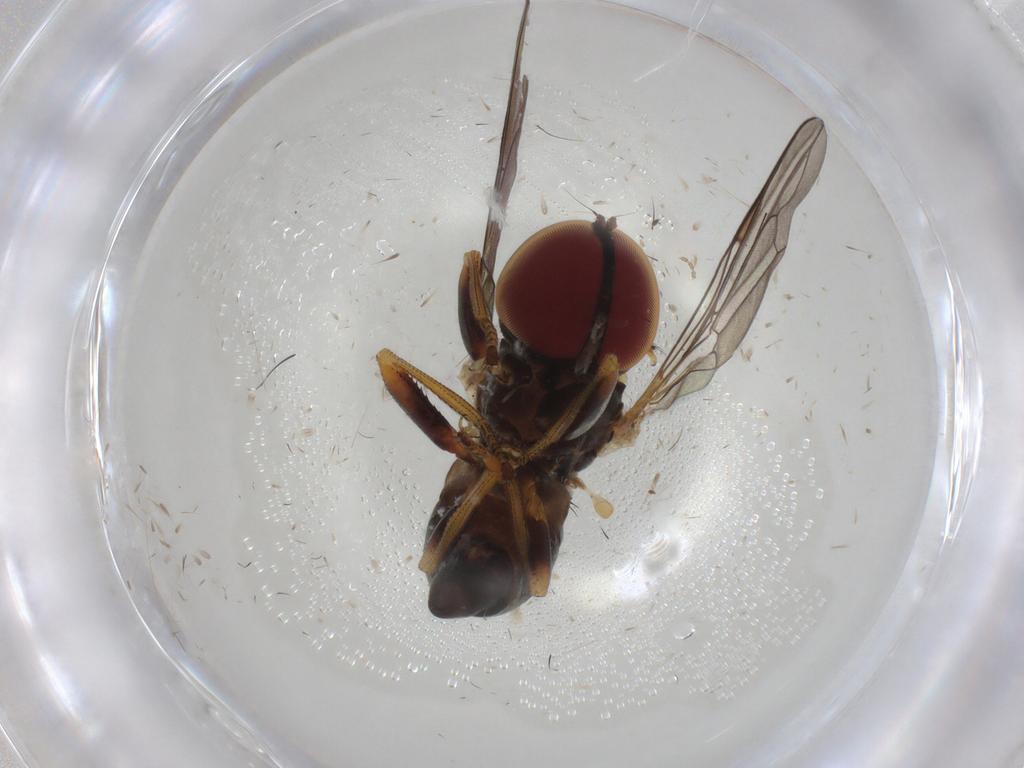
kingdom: Animalia
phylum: Arthropoda
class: Insecta
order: Diptera
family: Pipunculidae
